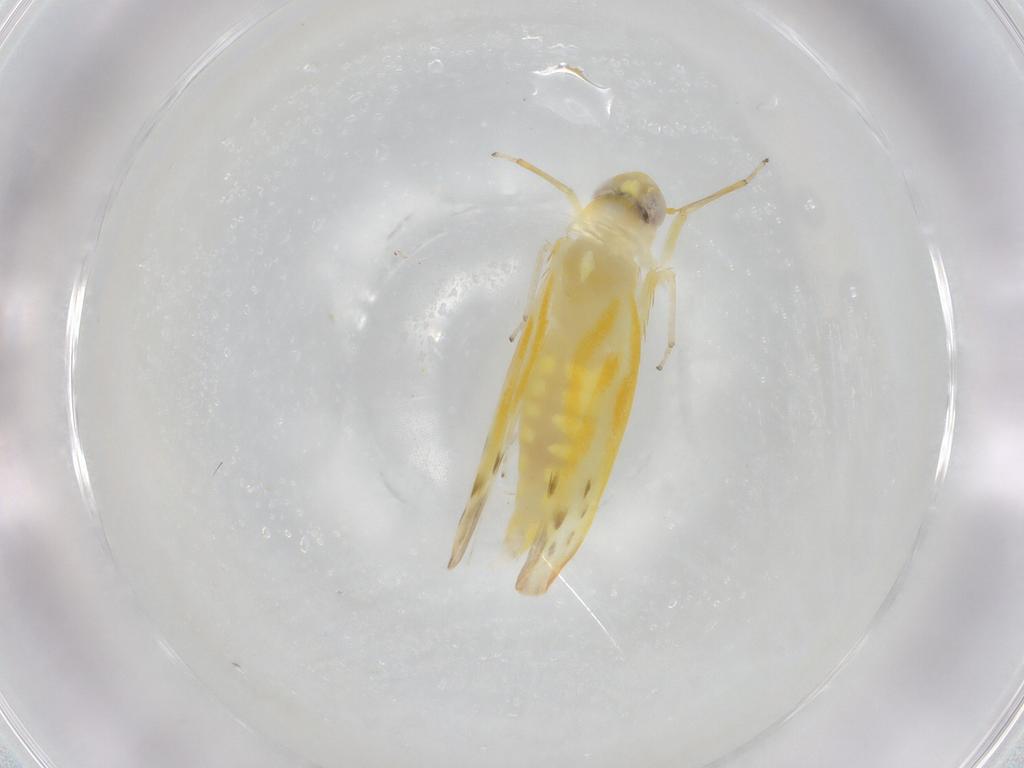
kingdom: Animalia
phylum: Arthropoda
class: Insecta
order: Hemiptera
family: Cicadellidae
